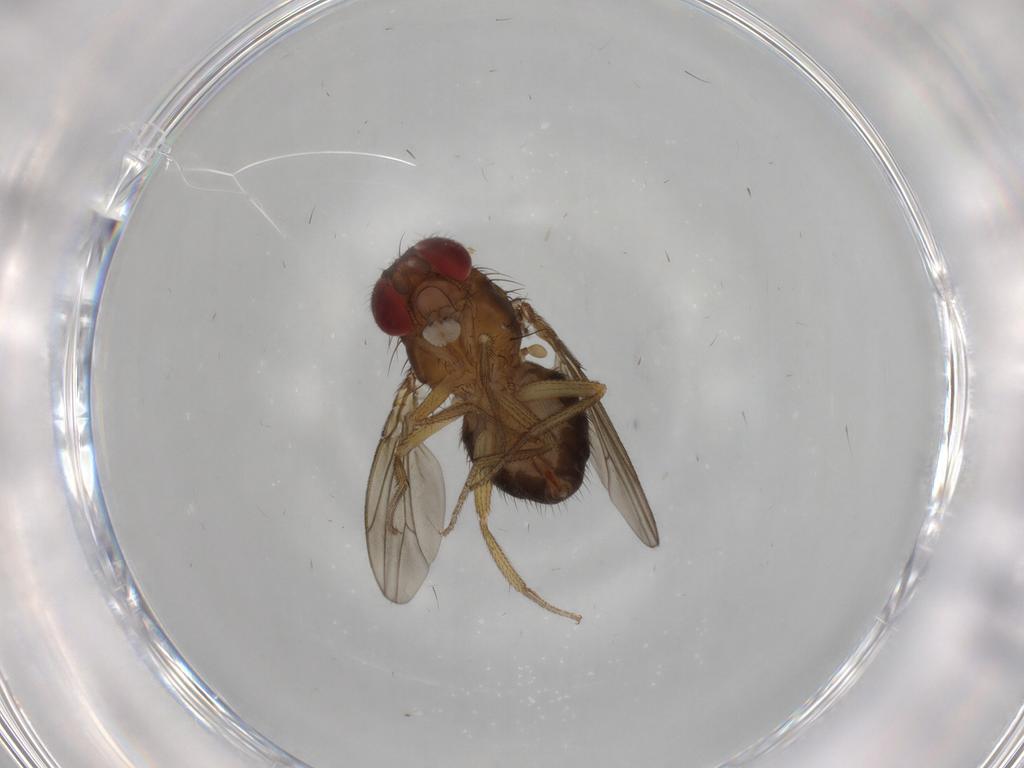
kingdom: Animalia
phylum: Arthropoda
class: Insecta
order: Diptera
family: Drosophilidae
